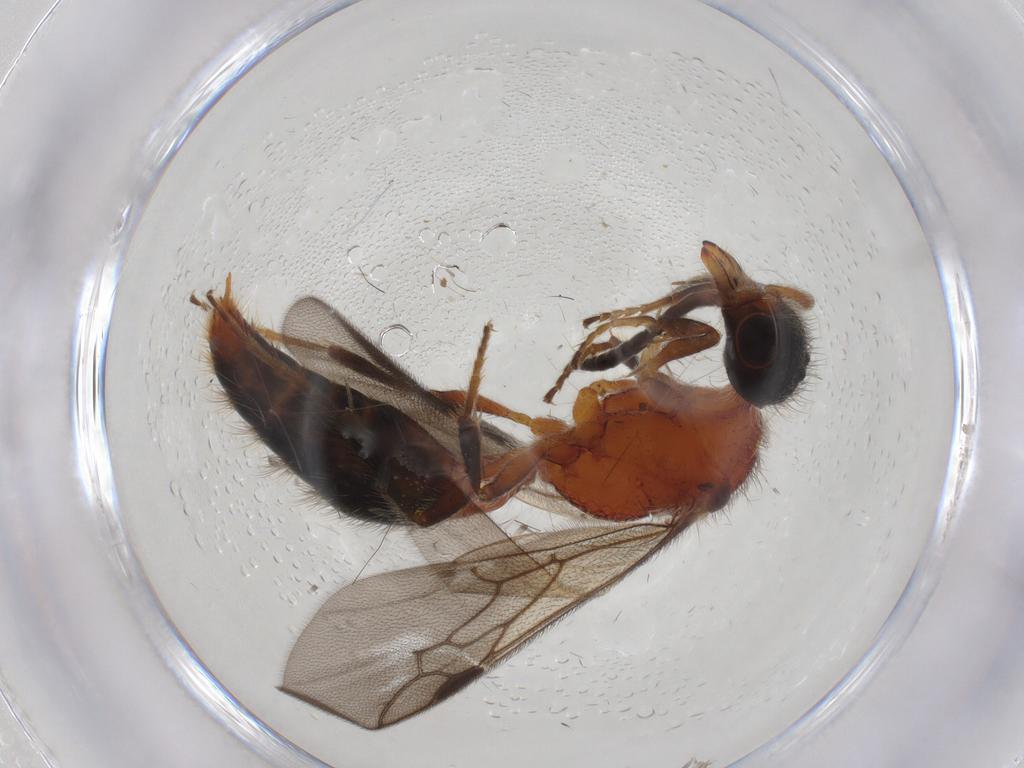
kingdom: Animalia
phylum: Arthropoda
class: Insecta
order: Hymenoptera
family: Mutillidae
